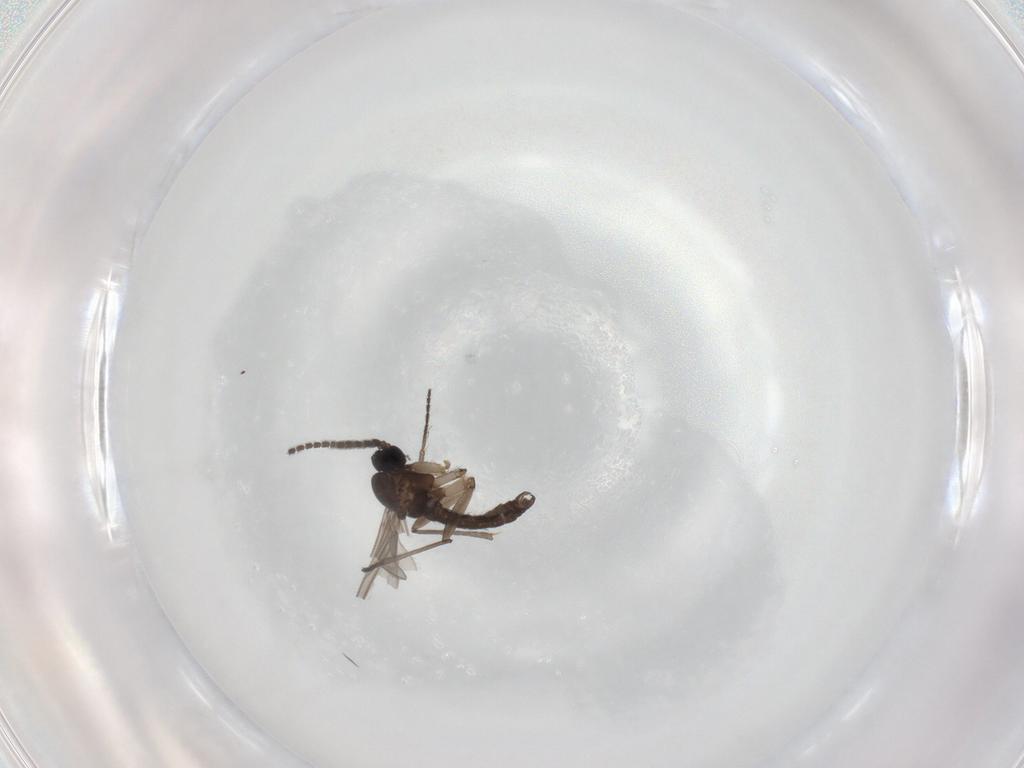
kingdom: Animalia
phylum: Arthropoda
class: Insecta
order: Diptera
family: Sciaridae
